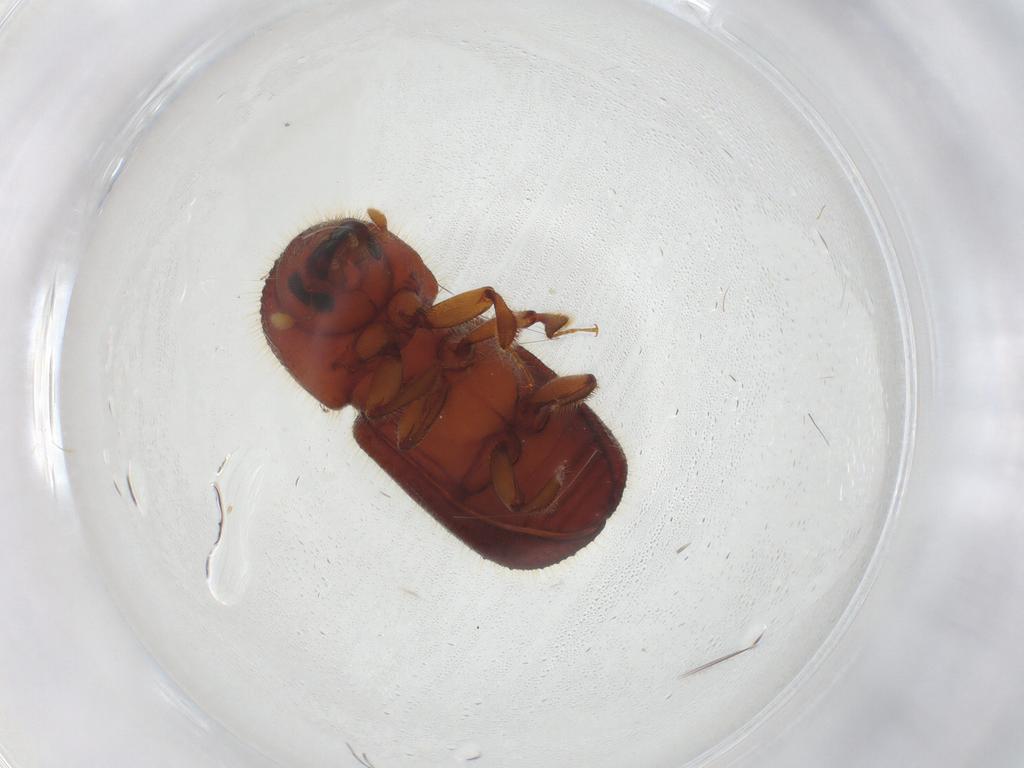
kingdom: Animalia
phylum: Arthropoda
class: Insecta
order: Coleoptera
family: Curculionidae
